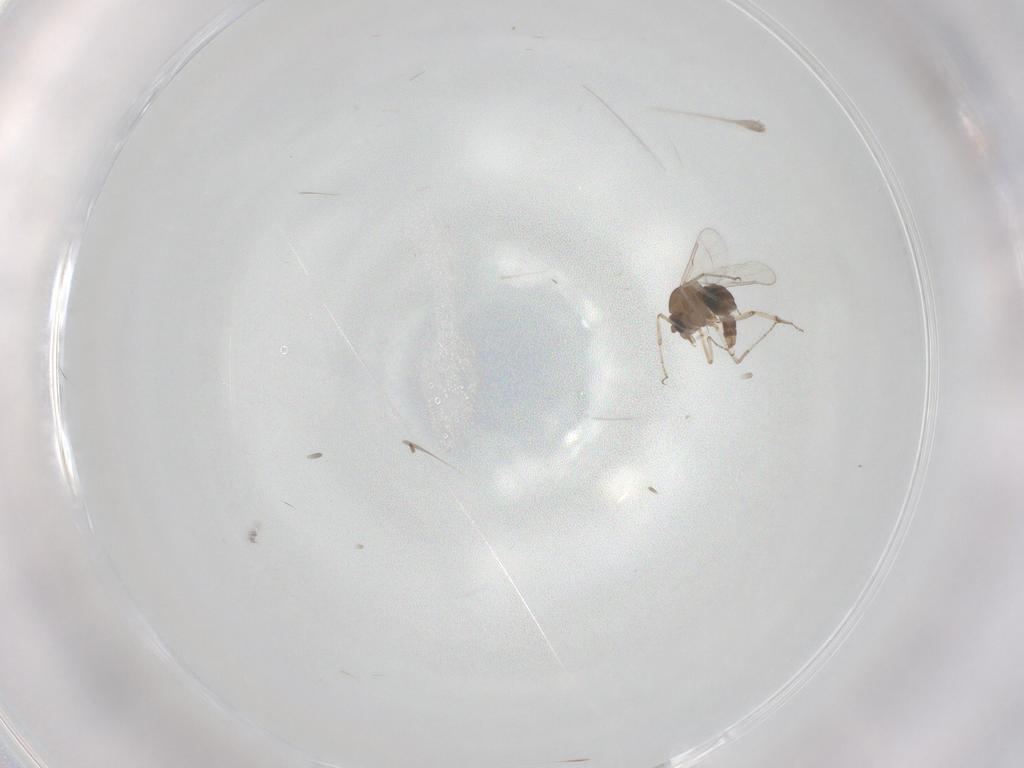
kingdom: Animalia
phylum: Arthropoda
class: Insecta
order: Diptera
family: Ceratopogonidae
